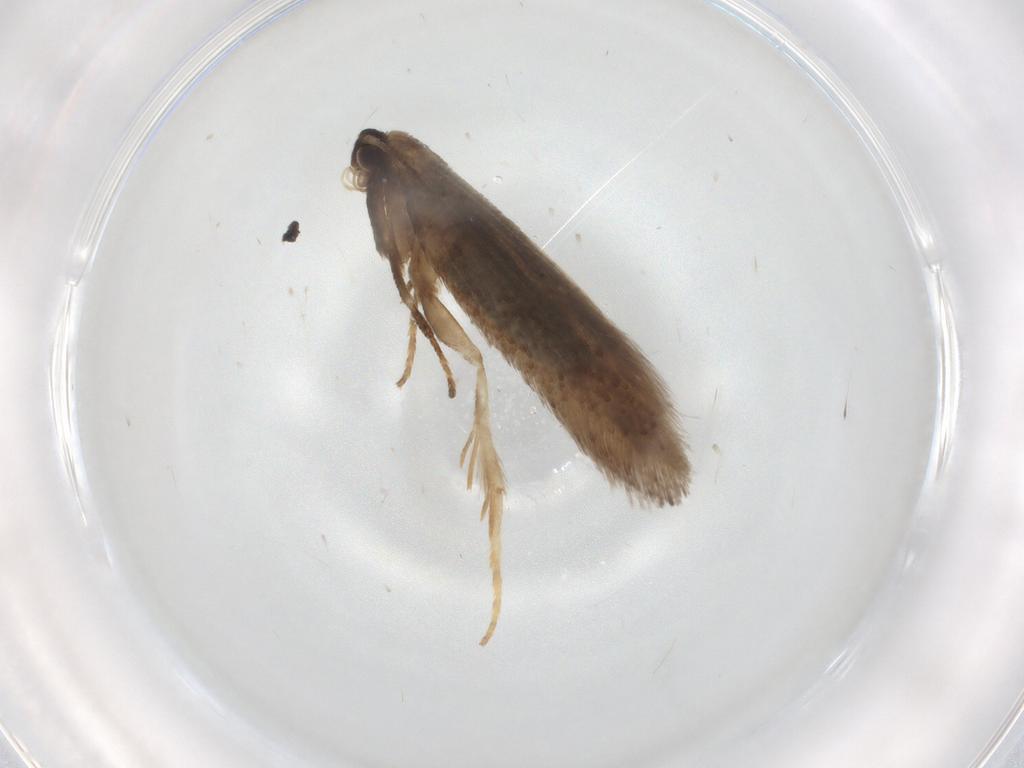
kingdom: Animalia
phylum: Arthropoda
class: Insecta
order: Lepidoptera
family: Nepticulidae
